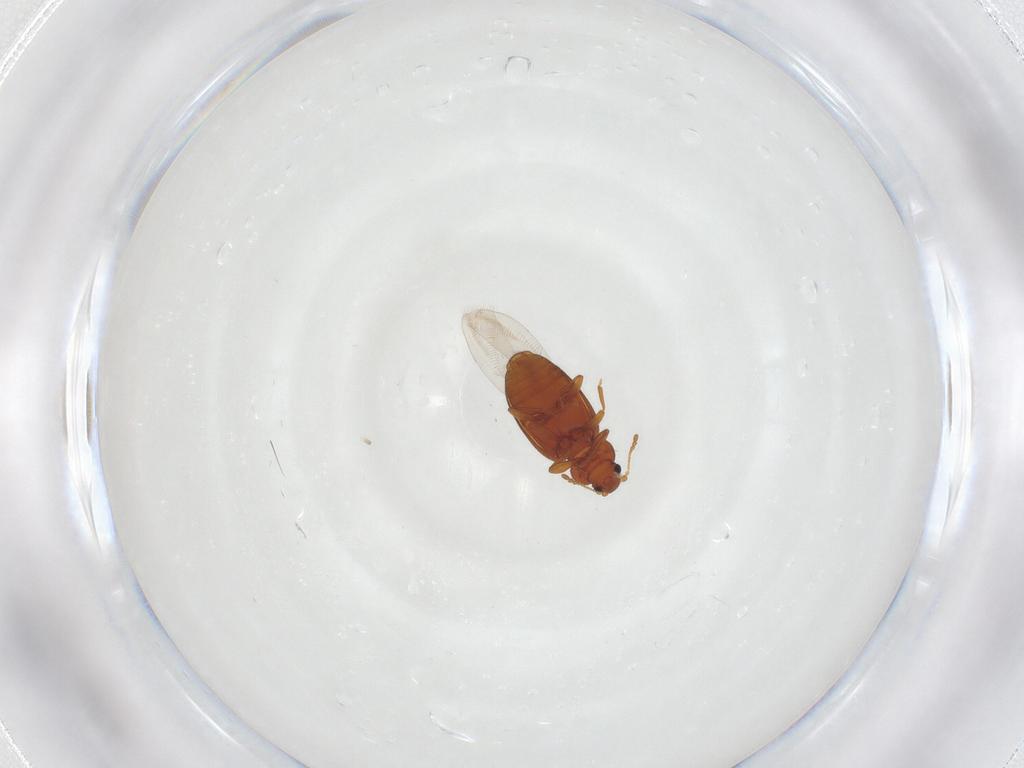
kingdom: Animalia
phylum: Arthropoda
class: Insecta
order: Coleoptera
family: Latridiidae
